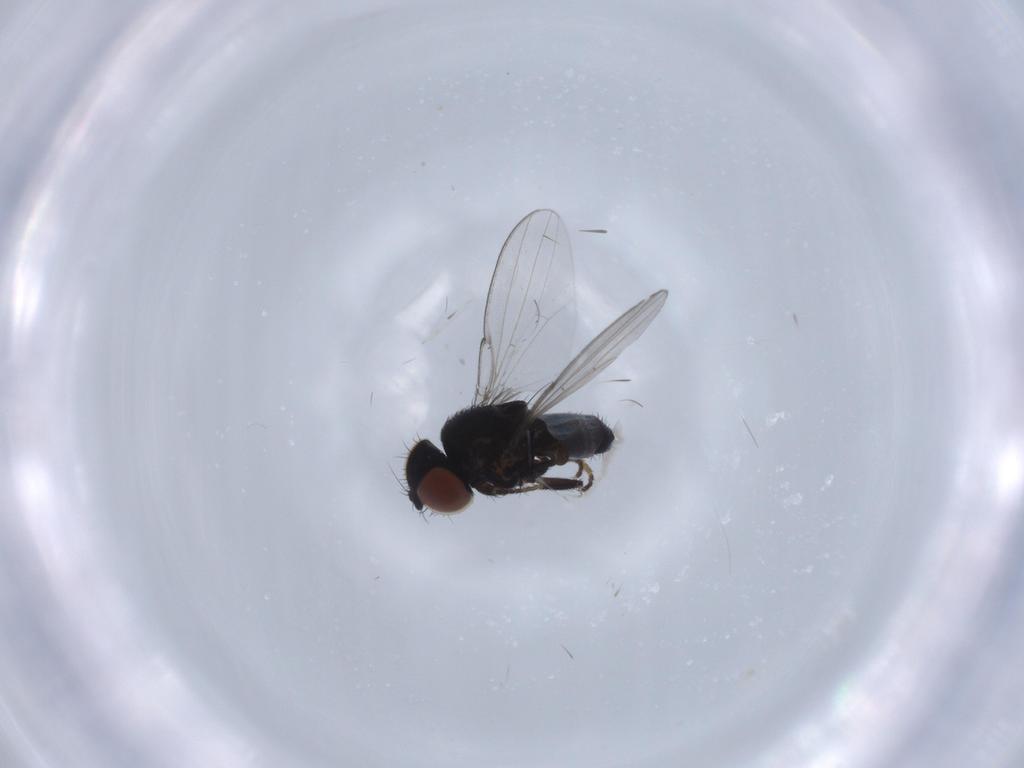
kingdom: Animalia
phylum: Arthropoda
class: Insecta
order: Diptera
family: Milichiidae
